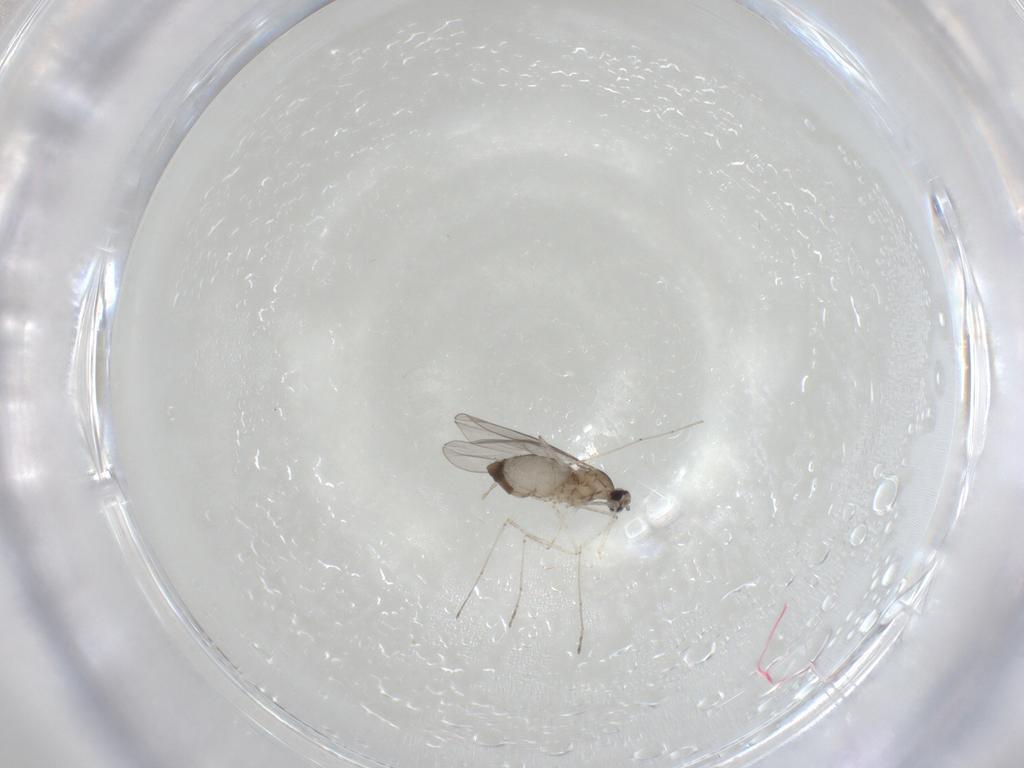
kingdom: Animalia
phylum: Arthropoda
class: Insecta
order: Diptera
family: Cecidomyiidae
